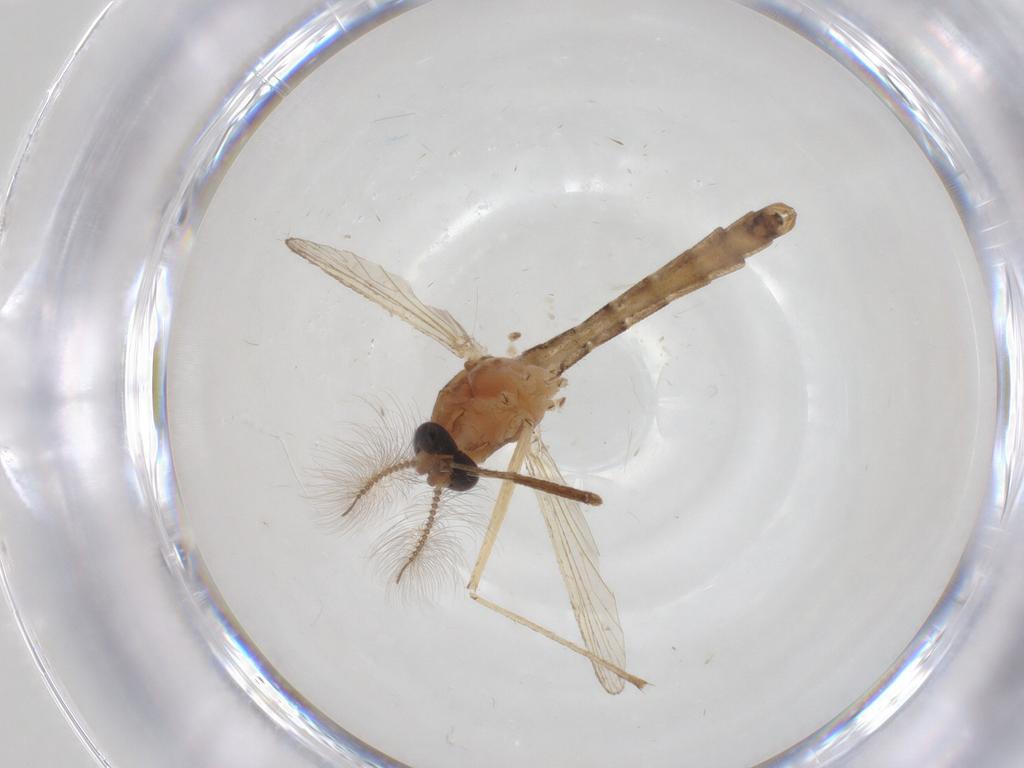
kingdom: Animalia
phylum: Arthropoda
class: Insecta
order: Diptera
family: Ceratopogonidae
